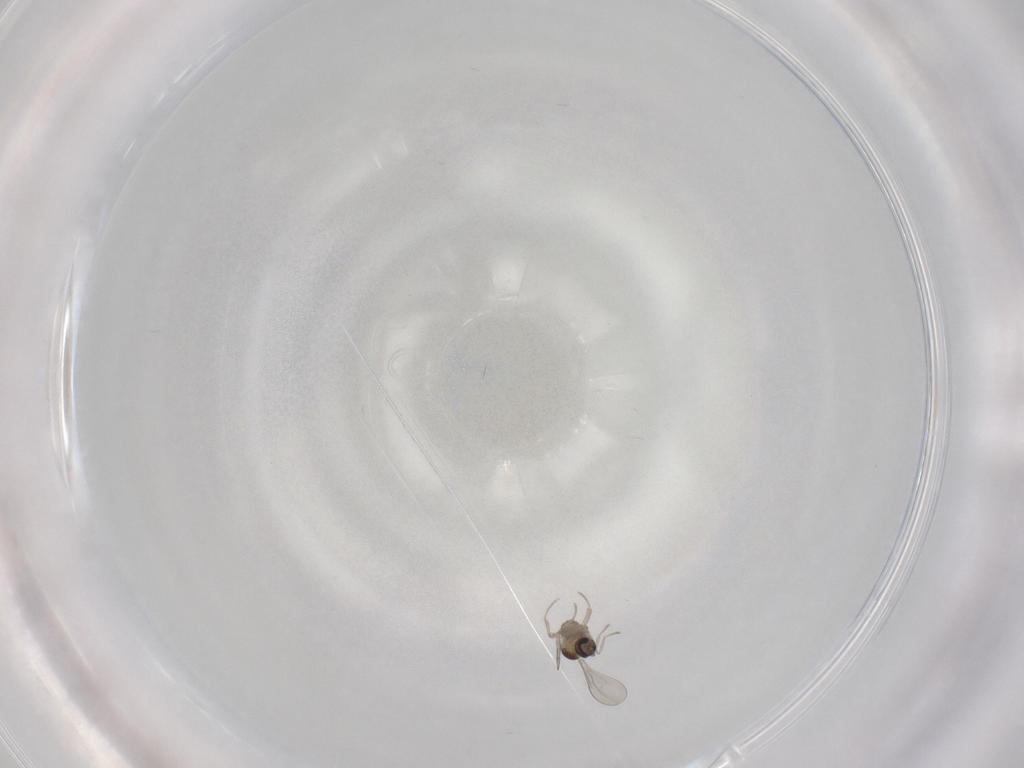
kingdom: Animalia
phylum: Arthropoda
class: Insecta
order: Diptera
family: Cecidomyiidae
